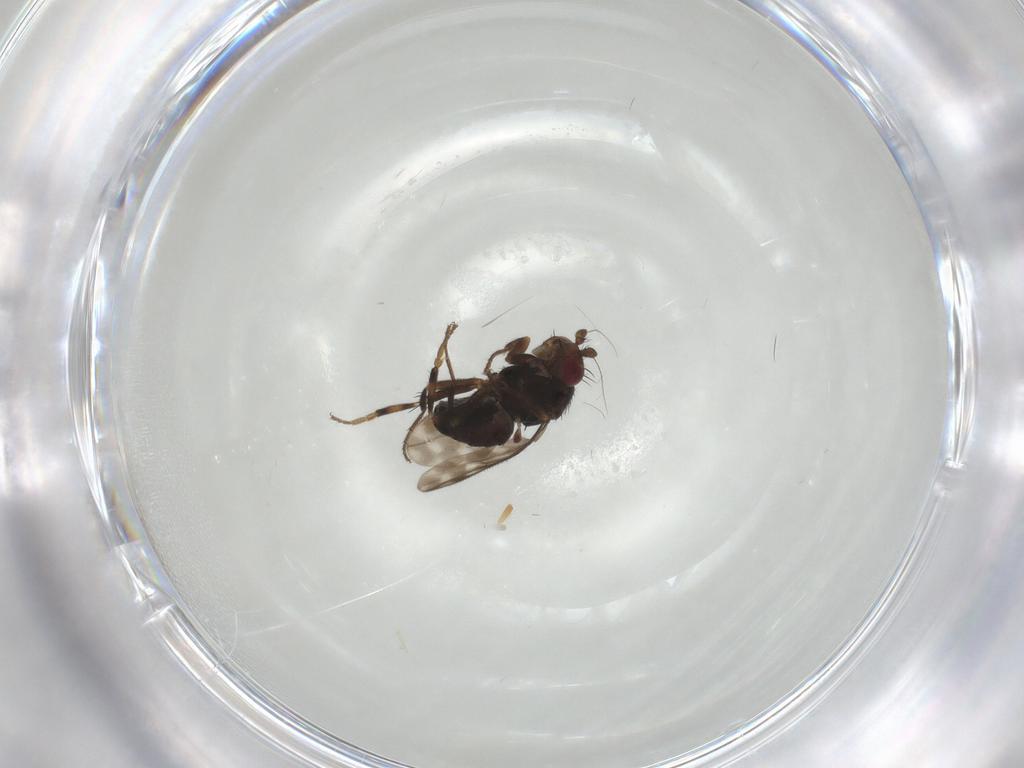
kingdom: Animalia
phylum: Arthropoda
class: Insecta
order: Diptera
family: Sphaeroceridae
